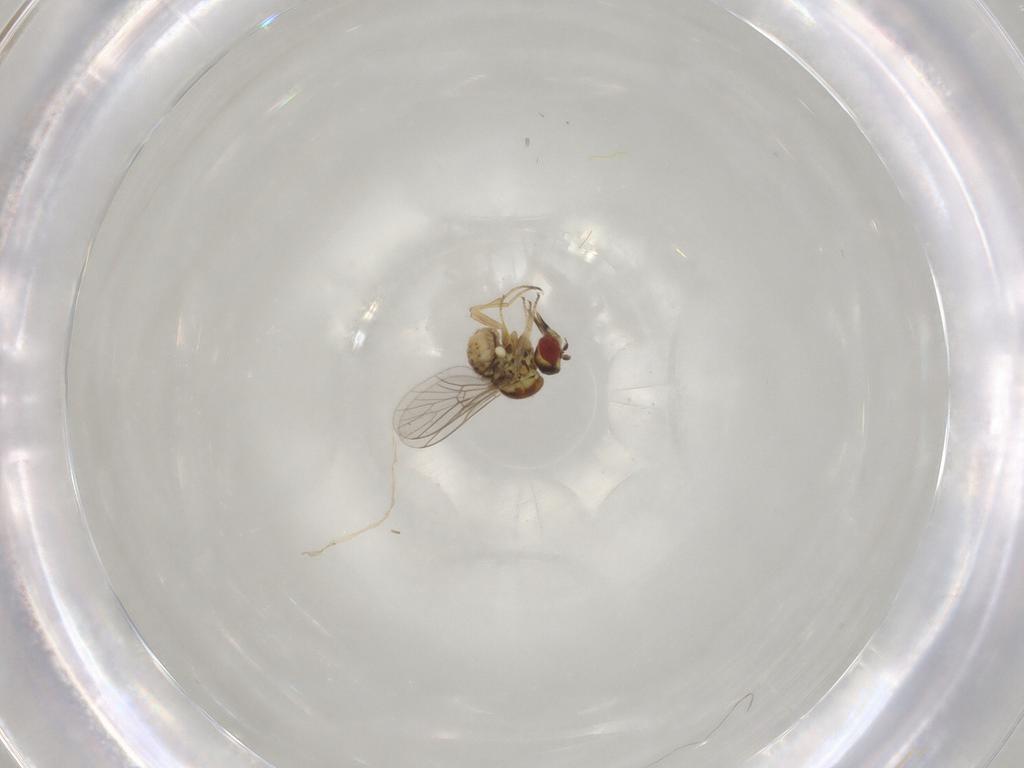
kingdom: Animalia
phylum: Arthropoda
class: Insecta
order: Diptera
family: Mythicomyiidae
